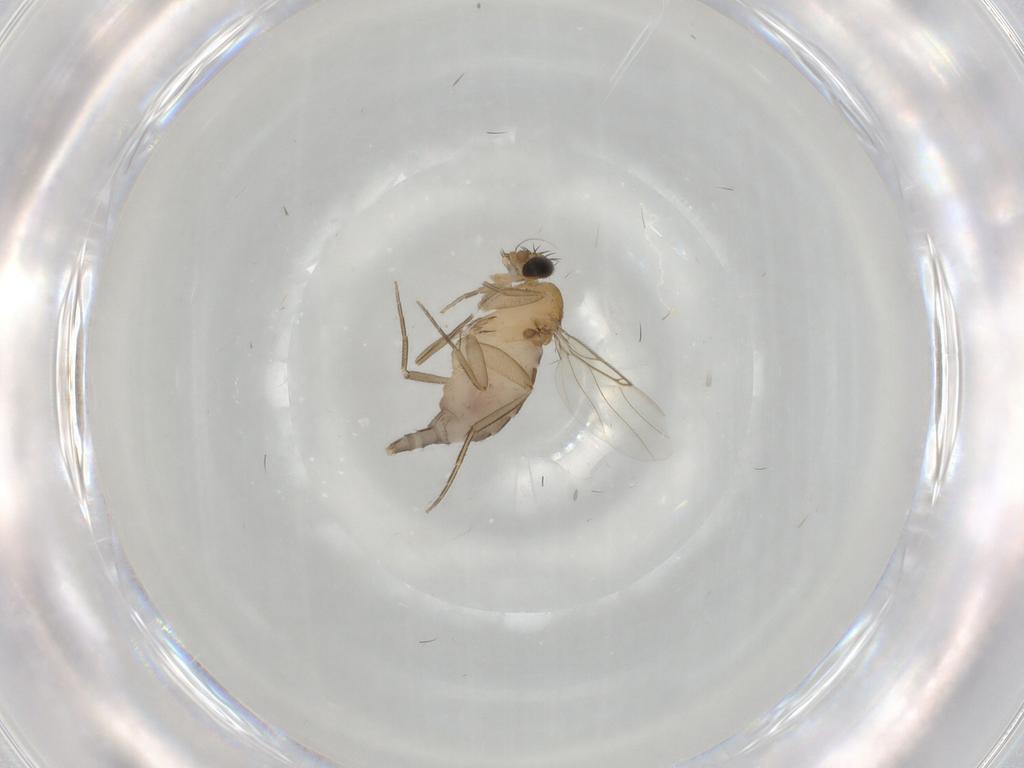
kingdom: Animalia
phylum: Arthropoda
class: Insecta
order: Diptera
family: Phoridae
